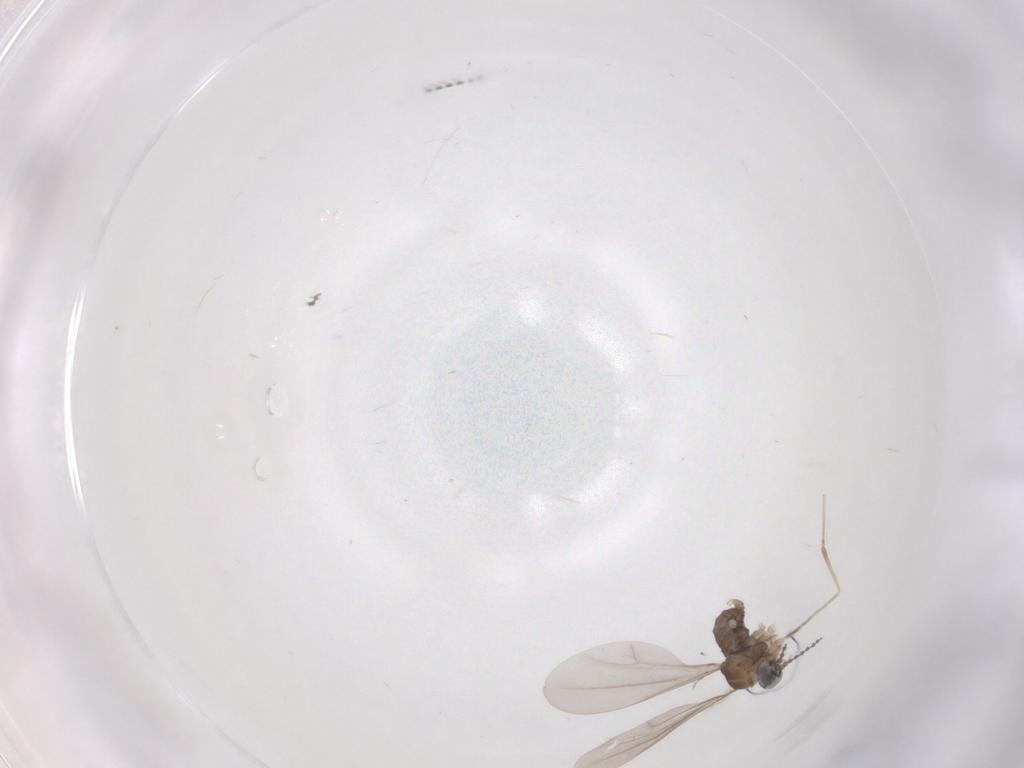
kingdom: Animalia
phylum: Arthropoda
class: Insecta
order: Diptera
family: Cecidomyiidae
